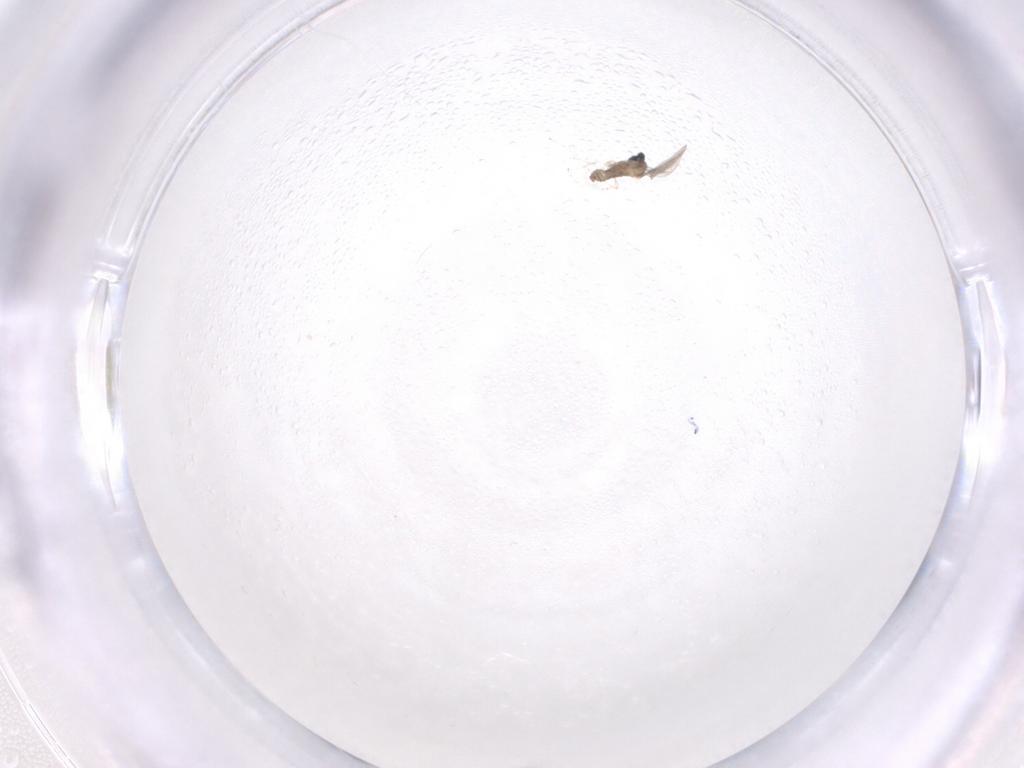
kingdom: Animalia
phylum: Arthropoda
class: Insecta
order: Diptera
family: Cecidomyiidae
